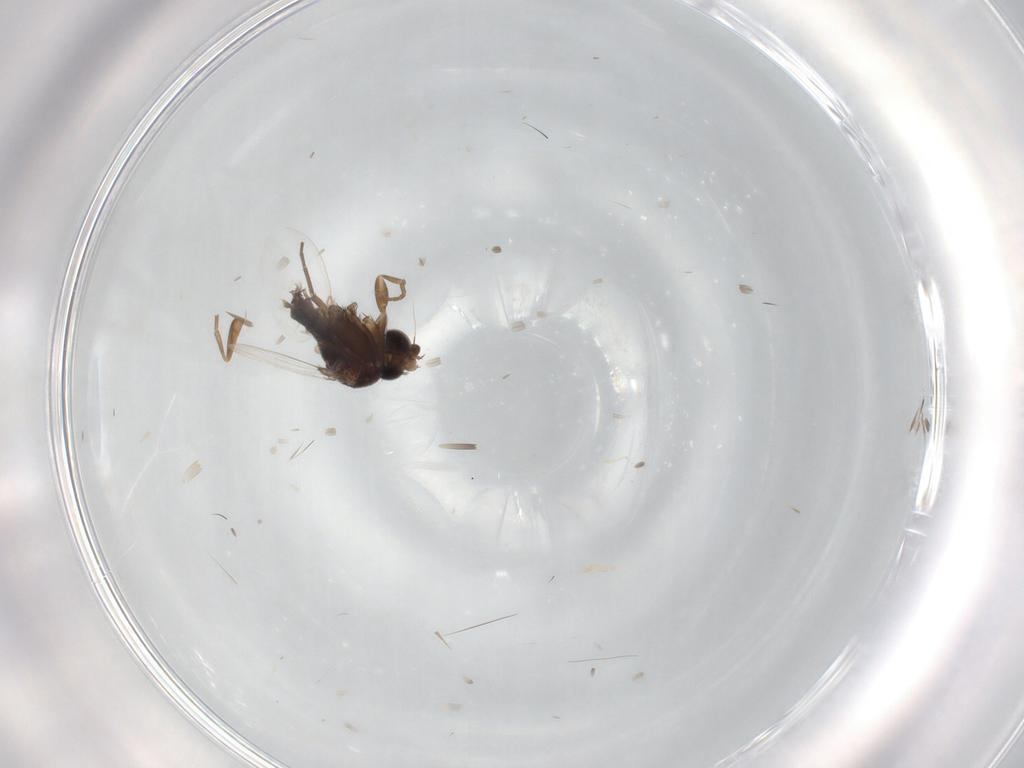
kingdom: Animalia
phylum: Arthropoda
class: Insecta
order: Diptera
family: Phoridae
